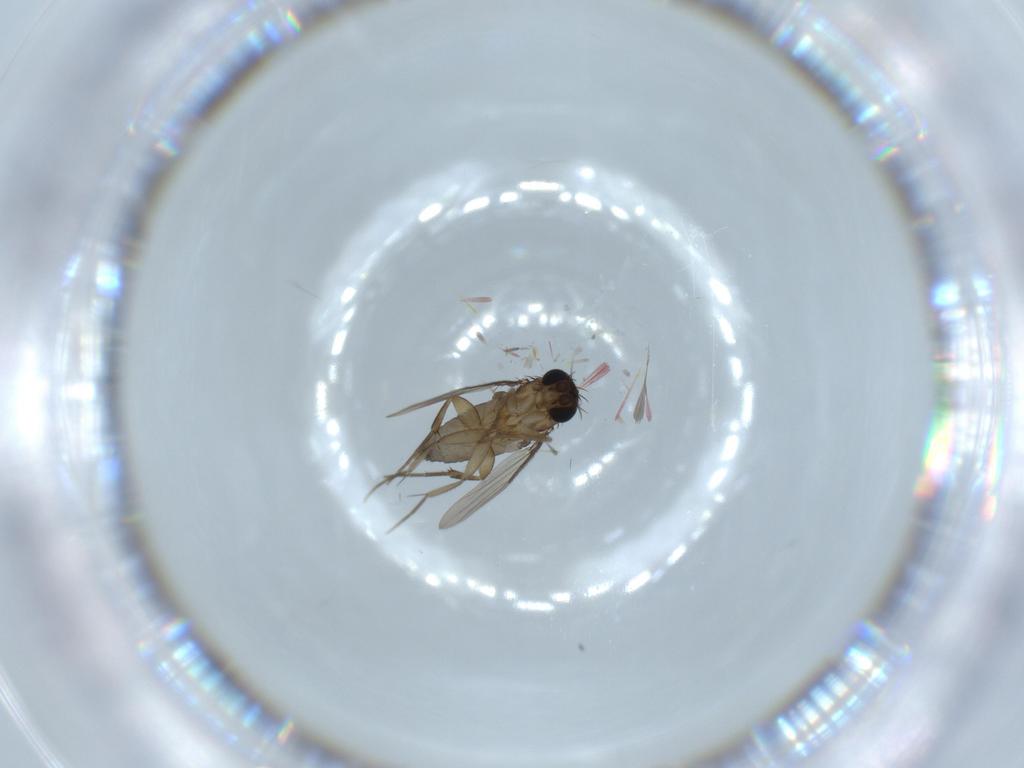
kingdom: Animalia
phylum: Arthropoda
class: Insecta
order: Diptera
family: Phoridae
